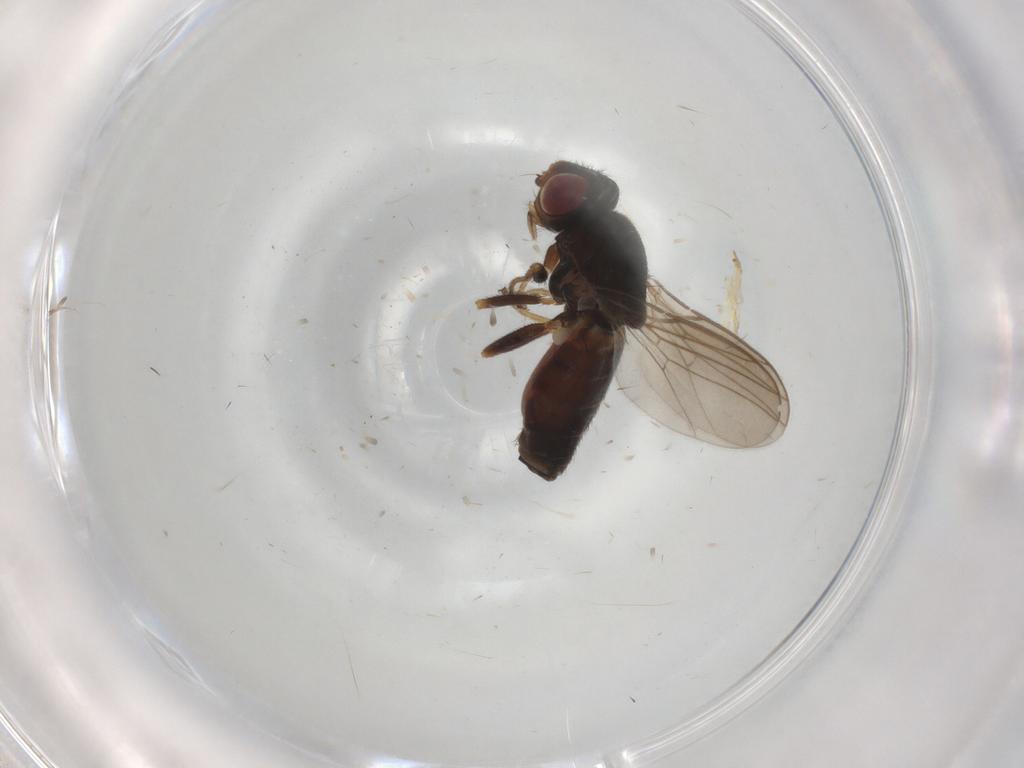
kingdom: Animalia
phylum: Arthropoda
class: Insecta
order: Diptera
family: Chloropidae
